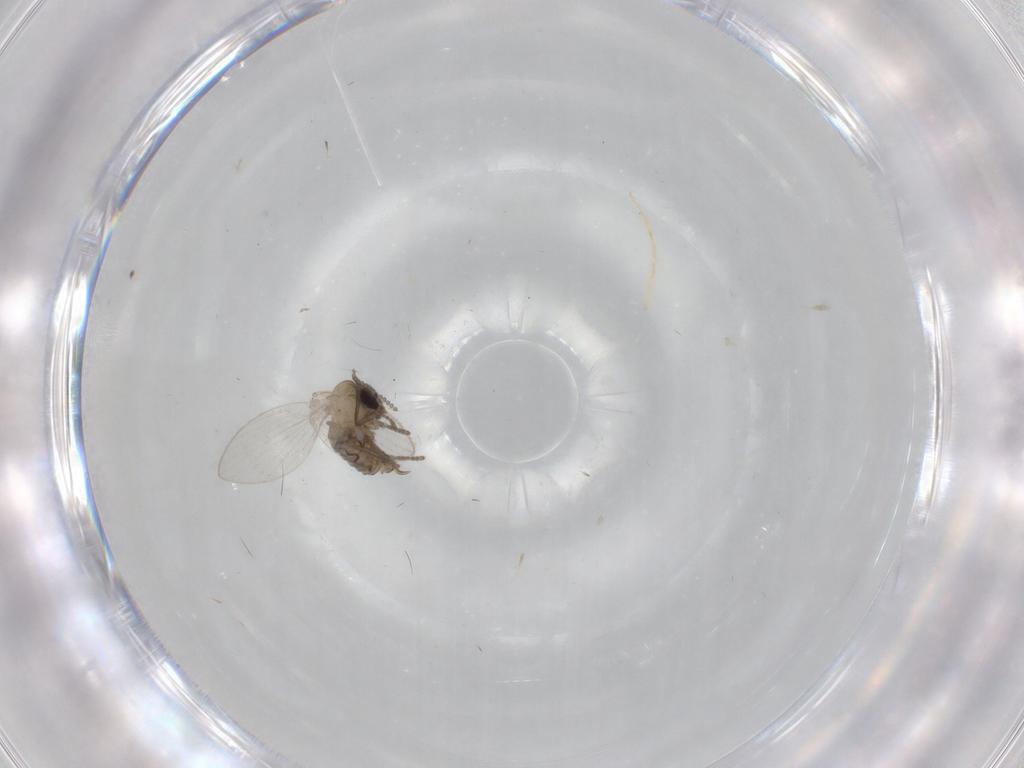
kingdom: Animalia
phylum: Arthropoda
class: Insecta
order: Diptera
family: Psychodidae
